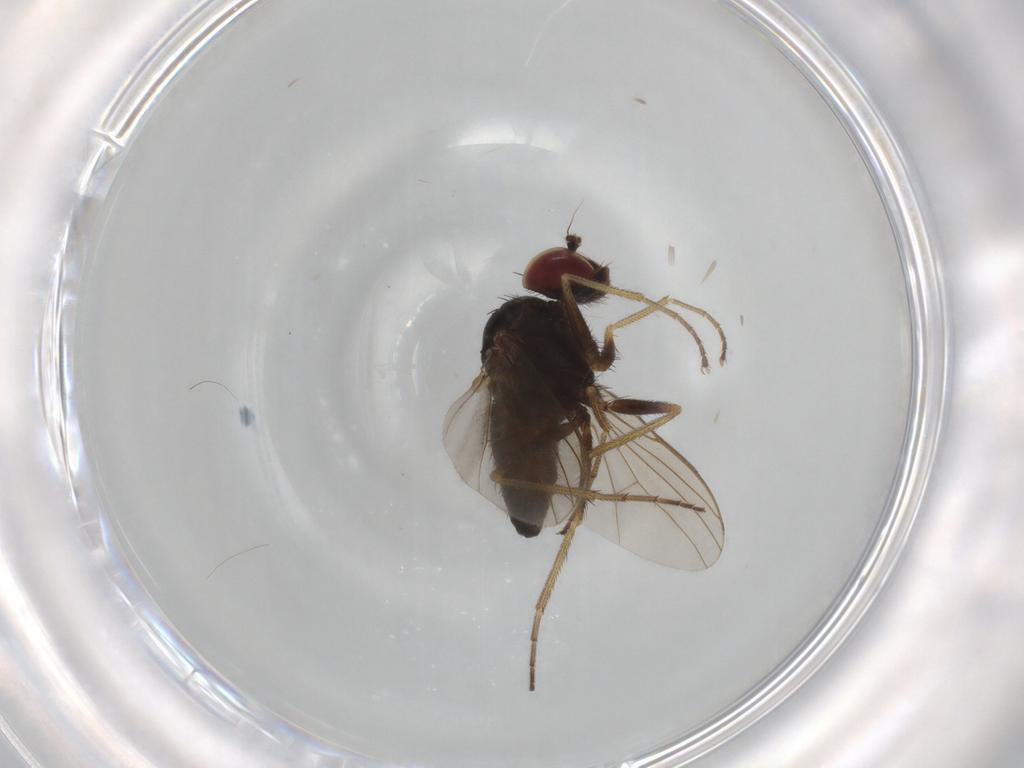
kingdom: Animalia
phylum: Arthropoda
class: Insecta
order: Diptera
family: Dolichopodidae
